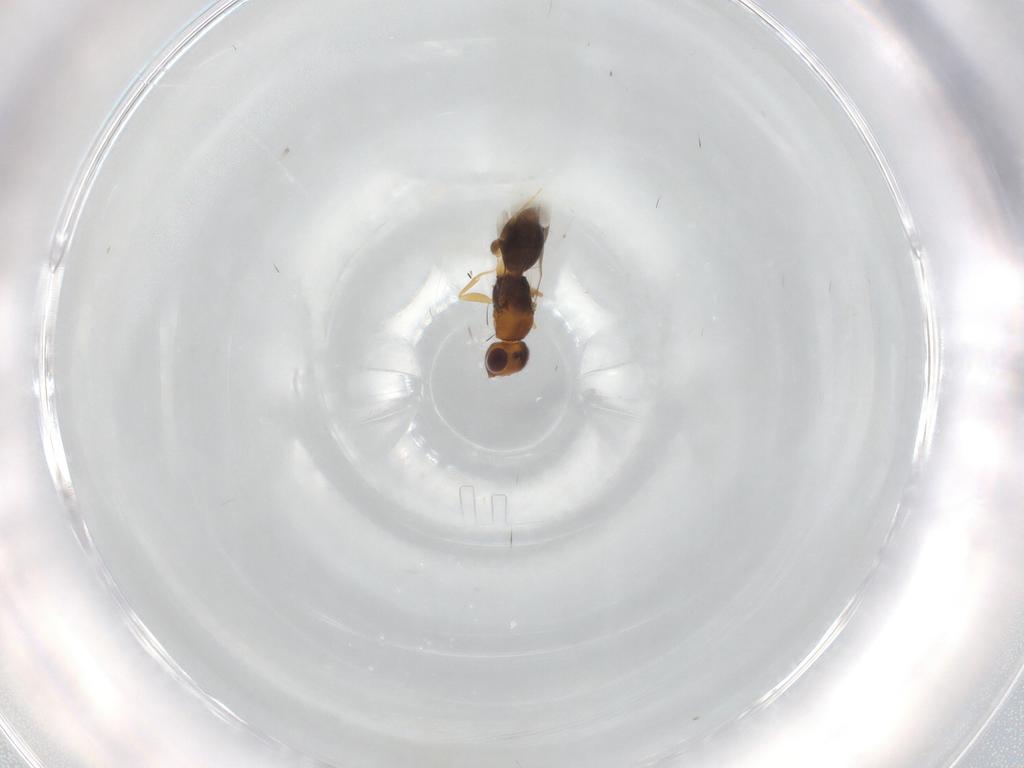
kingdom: Animalia
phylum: Arthropoda
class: Insecta
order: Hymenoptera
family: Megaspilidae
